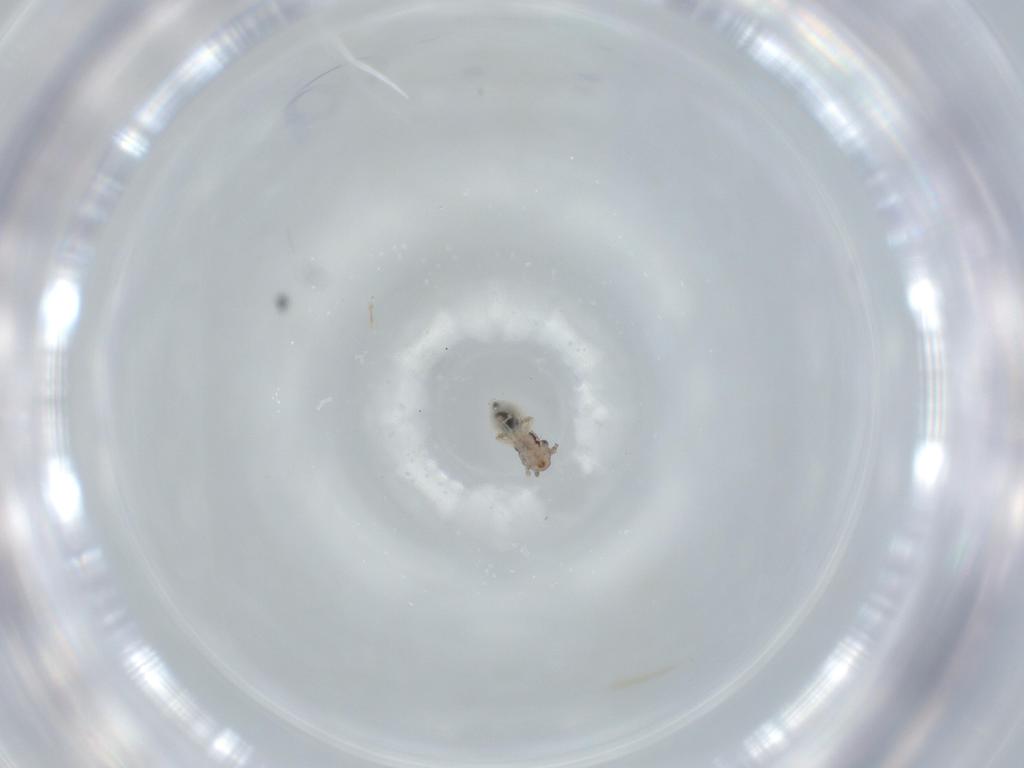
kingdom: Animalia
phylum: Arthropoda
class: Insecta
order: Psocodea
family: Lepidopsocidae
